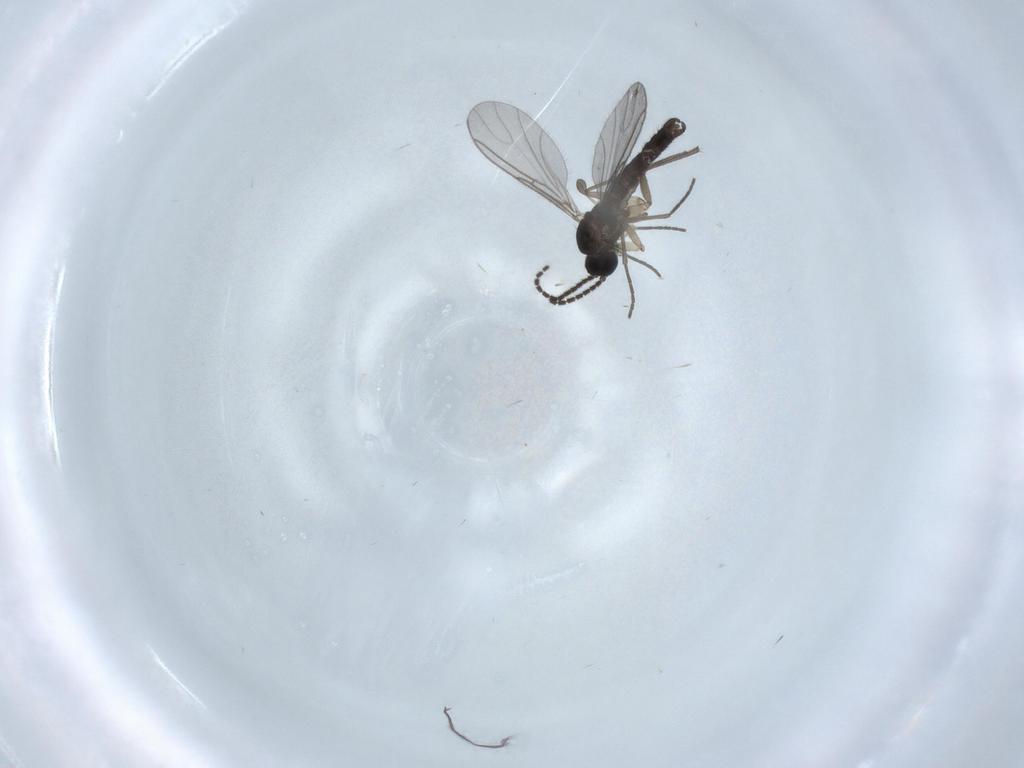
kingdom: Animalia
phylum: Arthropoda
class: Insecta
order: Diptera
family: Sciaridae
